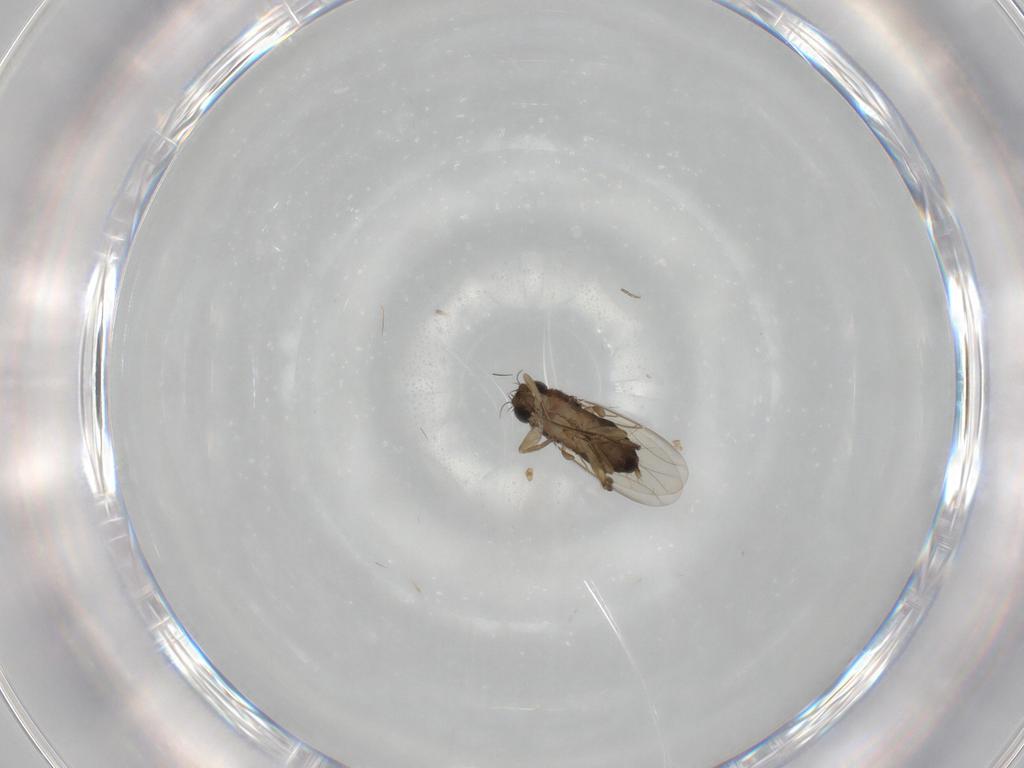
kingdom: Animalia
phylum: Arthropoda
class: Insecta
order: Diptera
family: Phoridae
